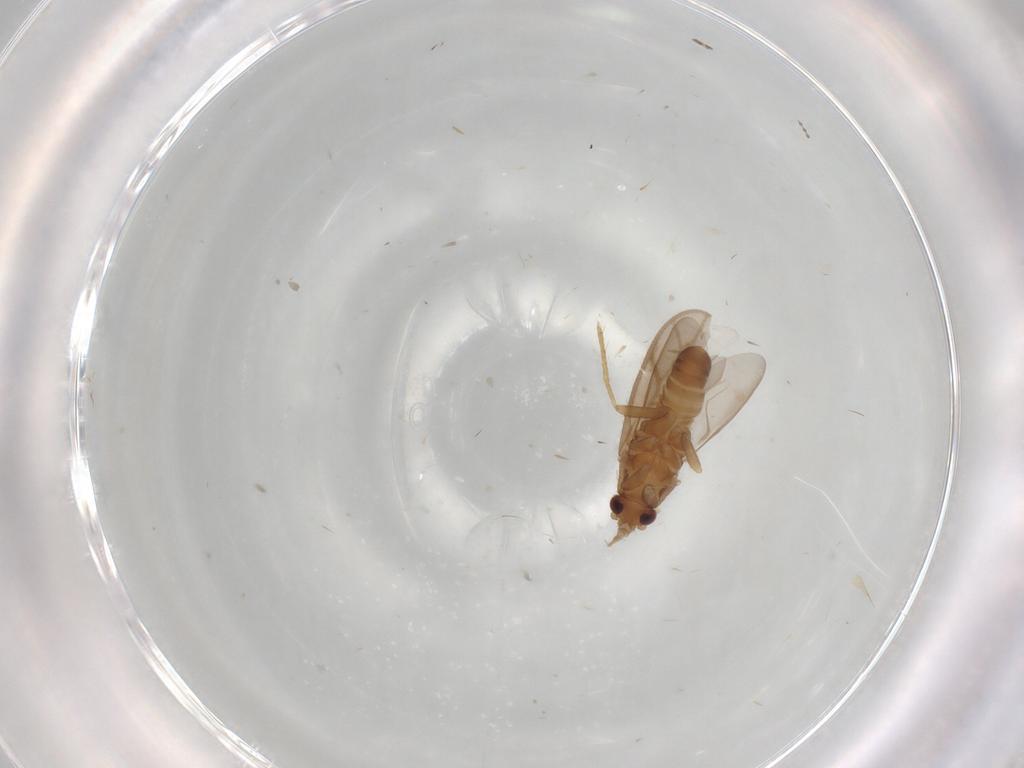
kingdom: Animalia
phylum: Arthropoda
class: Insecta
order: Hemiptera
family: Ceratocombidae
